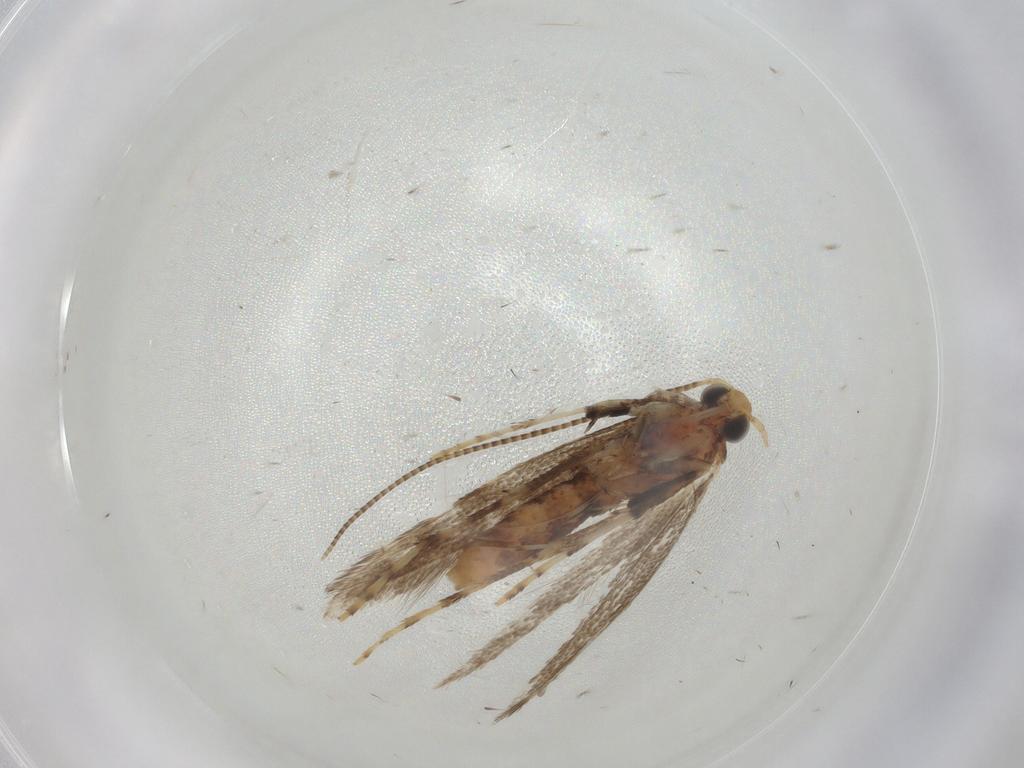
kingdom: Animalia
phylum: Arthropoda
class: Insecta
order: Lepidoptera
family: Gracillariidae
